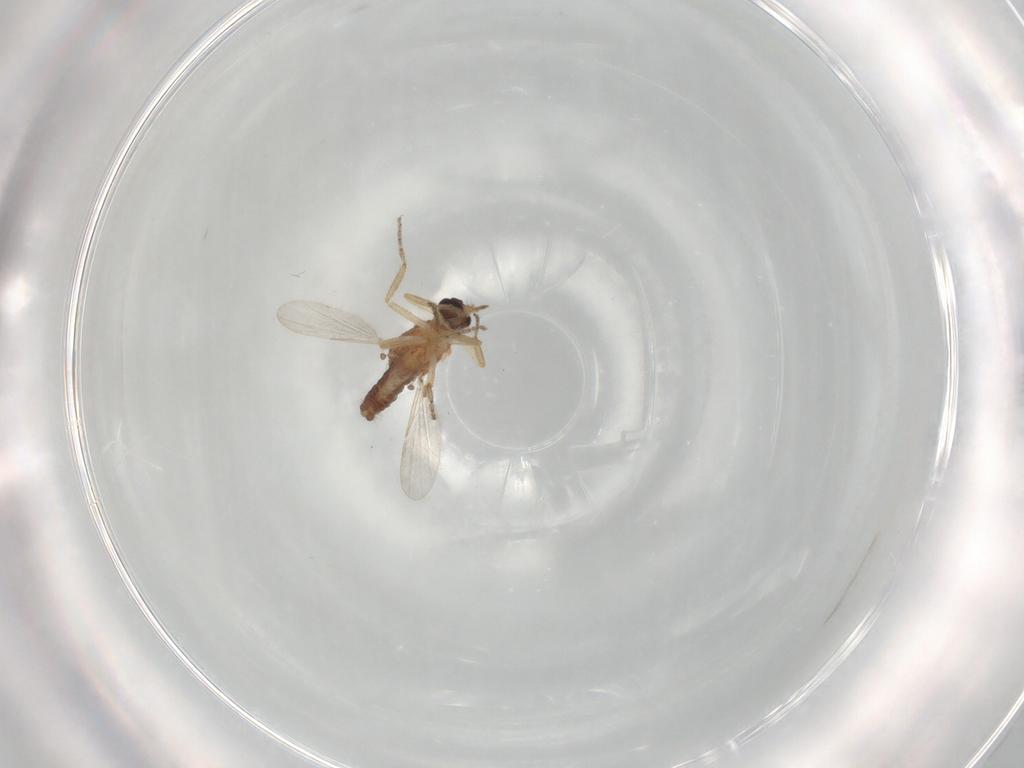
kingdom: Animalia
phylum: Arthropoda
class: Insecta
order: Diptera
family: Ceratopogonidae
